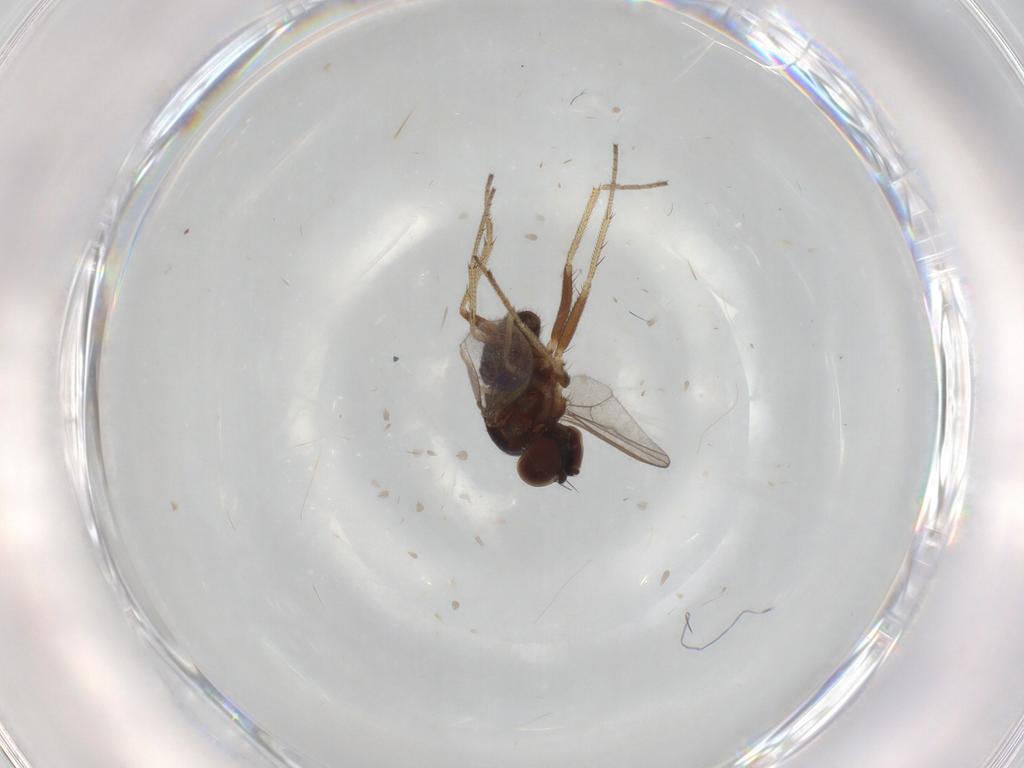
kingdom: Animalia
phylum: Arthropoda
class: Insecta
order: Diptera
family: Dolichopodidae
